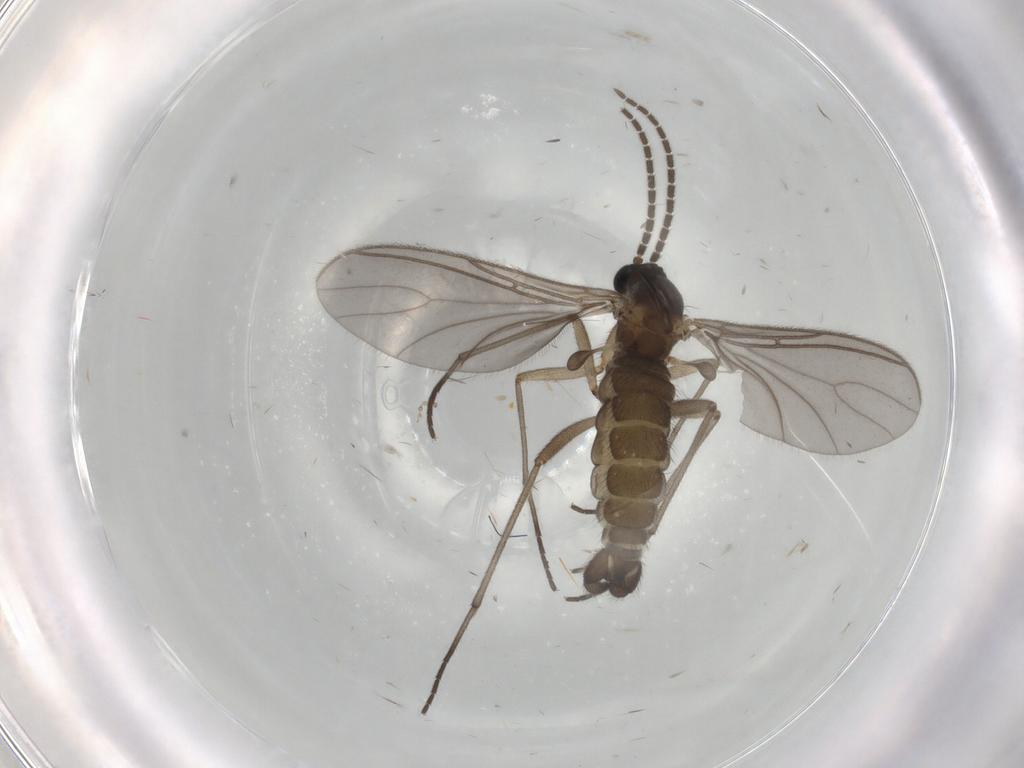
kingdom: Animalia
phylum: Arthropoda
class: Insecta
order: Diptera
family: Sciaridae
